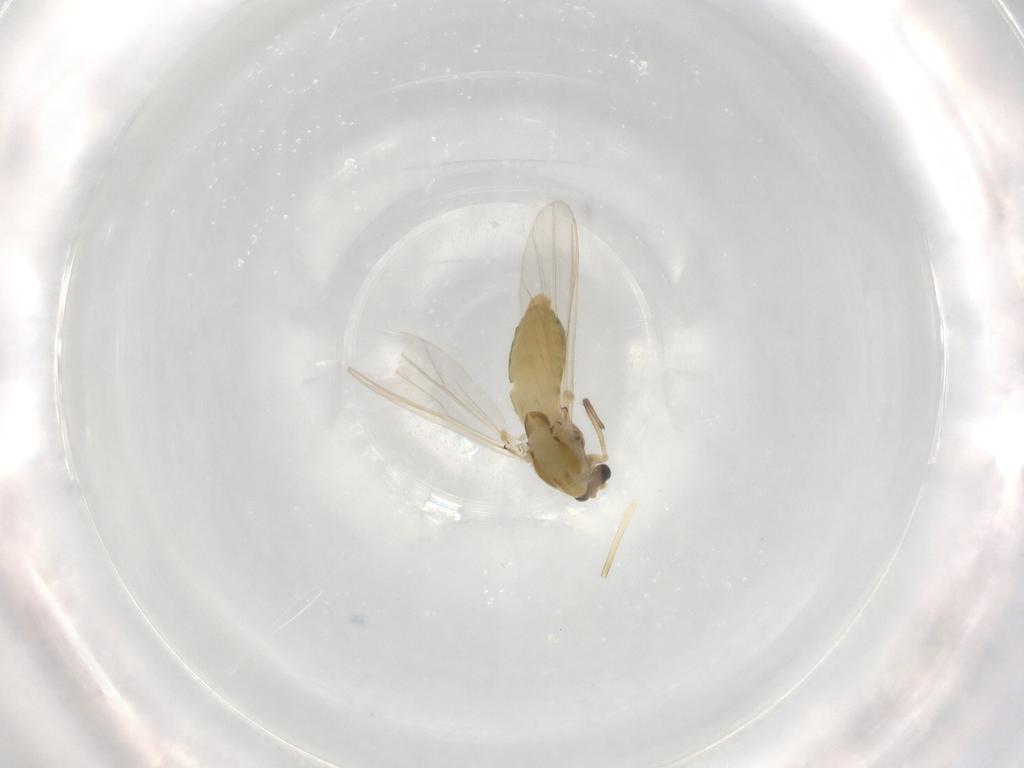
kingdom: Animalia
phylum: Arthropoda
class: Insecta
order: Diptera
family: Chironomidae
